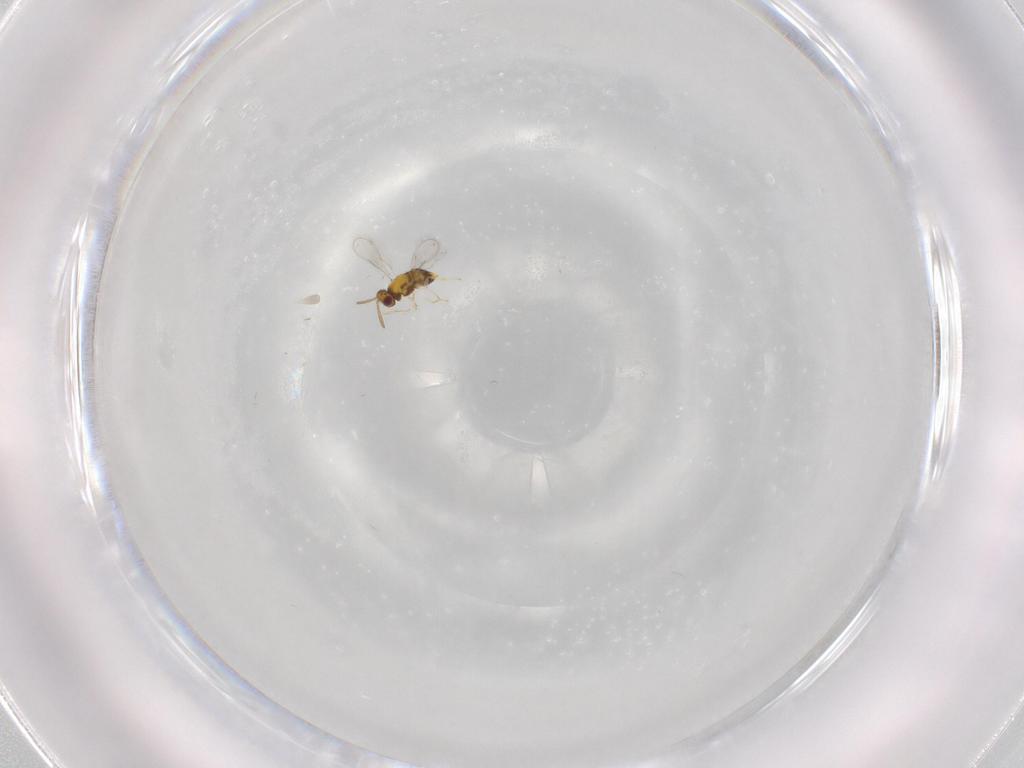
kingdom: Animalia
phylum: Arthropoda
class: Insecta
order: Hymenoptera
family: Aphelinidae
